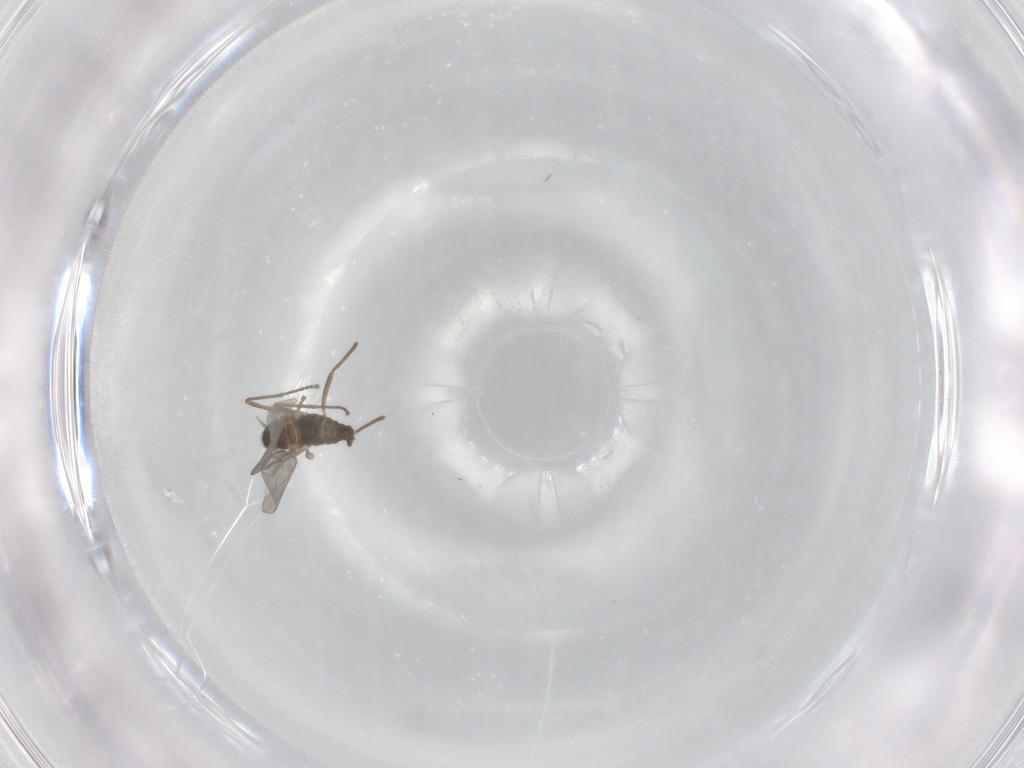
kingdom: Animalia
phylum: Arthropoda
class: Insecta
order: Diptera
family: Cecidomyiidae
